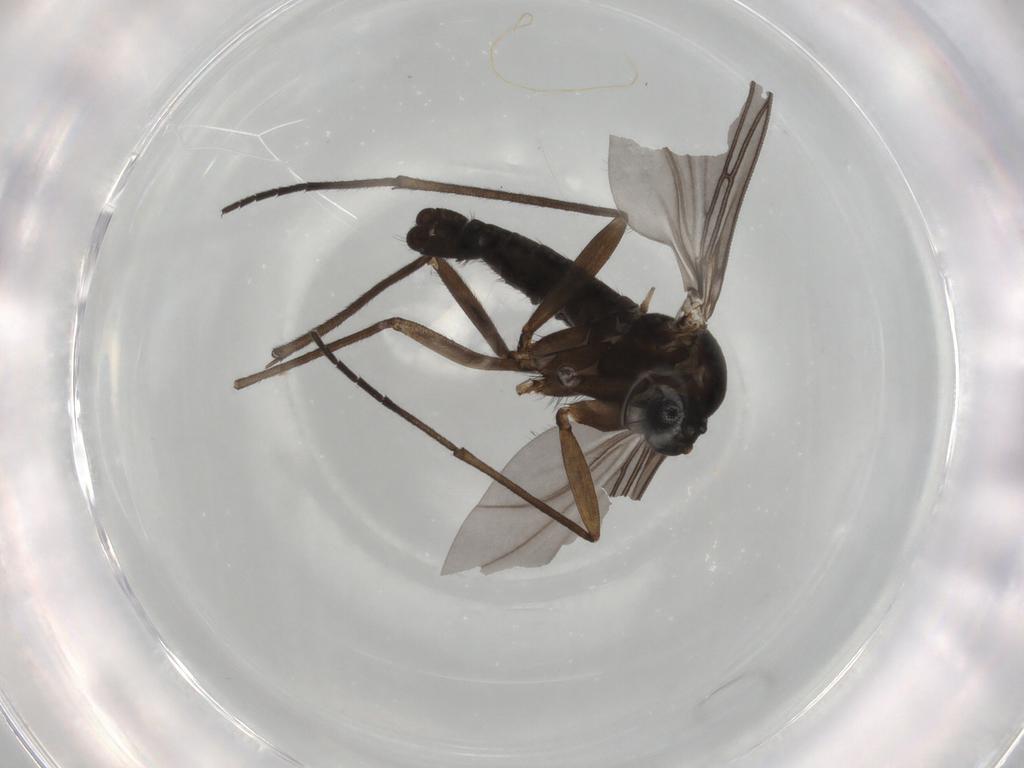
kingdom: Animalia
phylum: Arthropoda
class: Insecta
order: Diptera
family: Sciaridae
